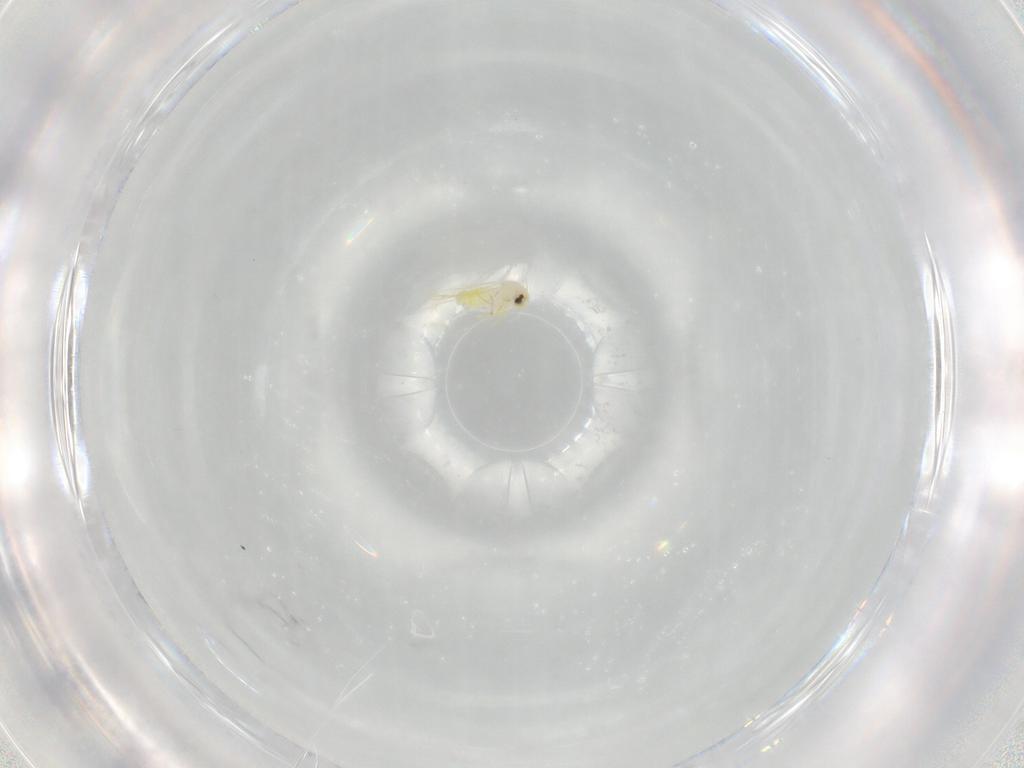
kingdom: Animalia
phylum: Arthropoda
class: Insecta
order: Hemiptera
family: Aleyrodidae
